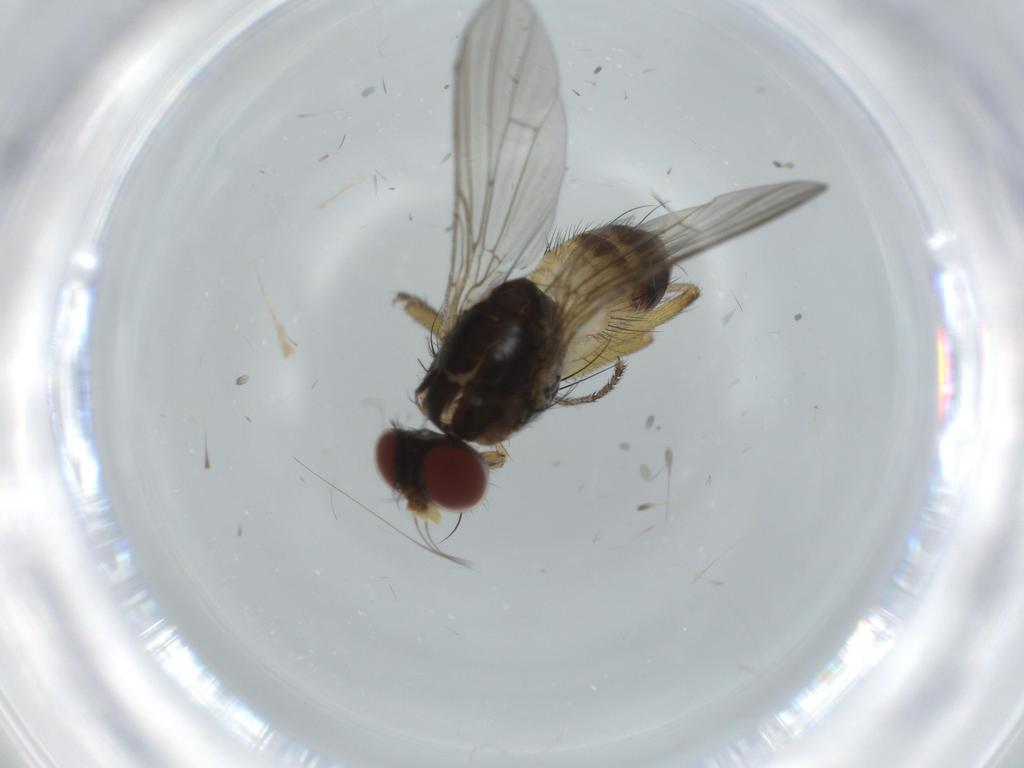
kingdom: Animalia
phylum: Arthropoda
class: Insecta
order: Diptera
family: Muscidae
